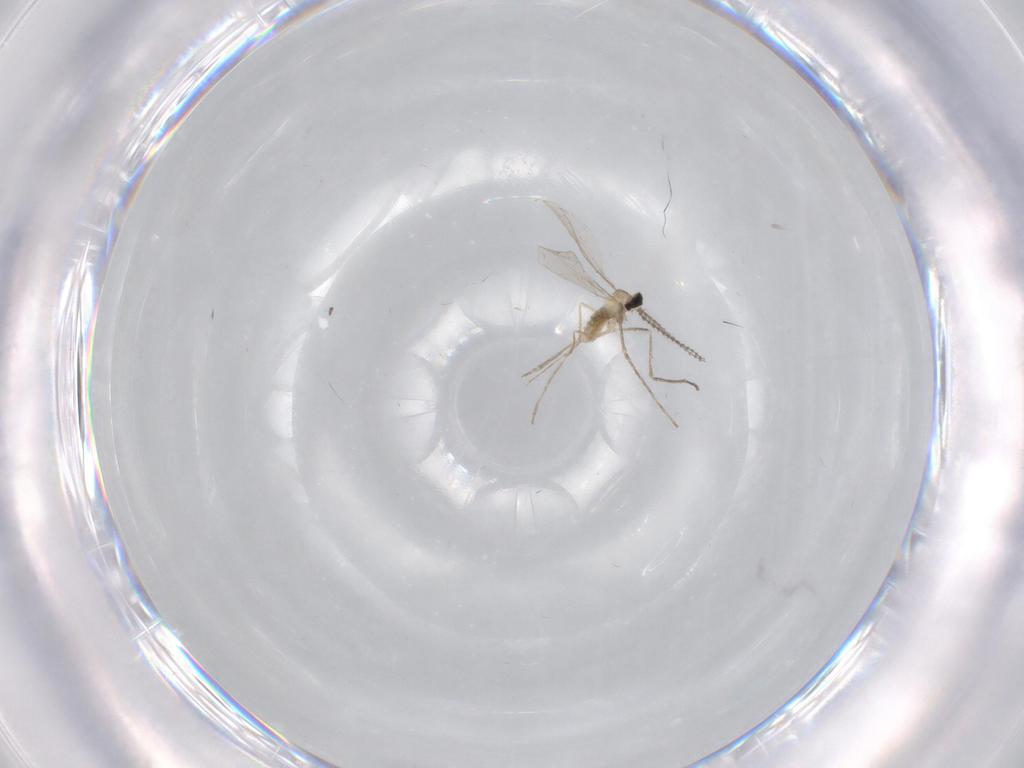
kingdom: Animalia
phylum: Arthropoda
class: Insecta
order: Diptera
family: Cecidomyiidae
